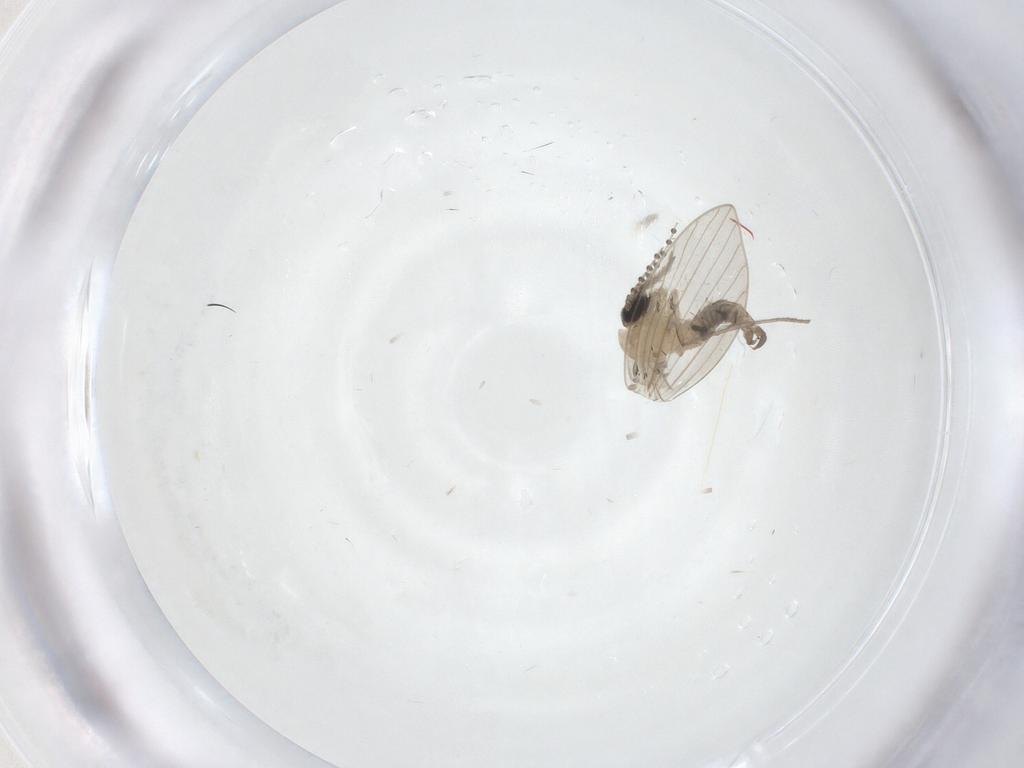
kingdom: Animalia
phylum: Arthropoda
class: Insecta
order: Diptera
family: Psychodidae
